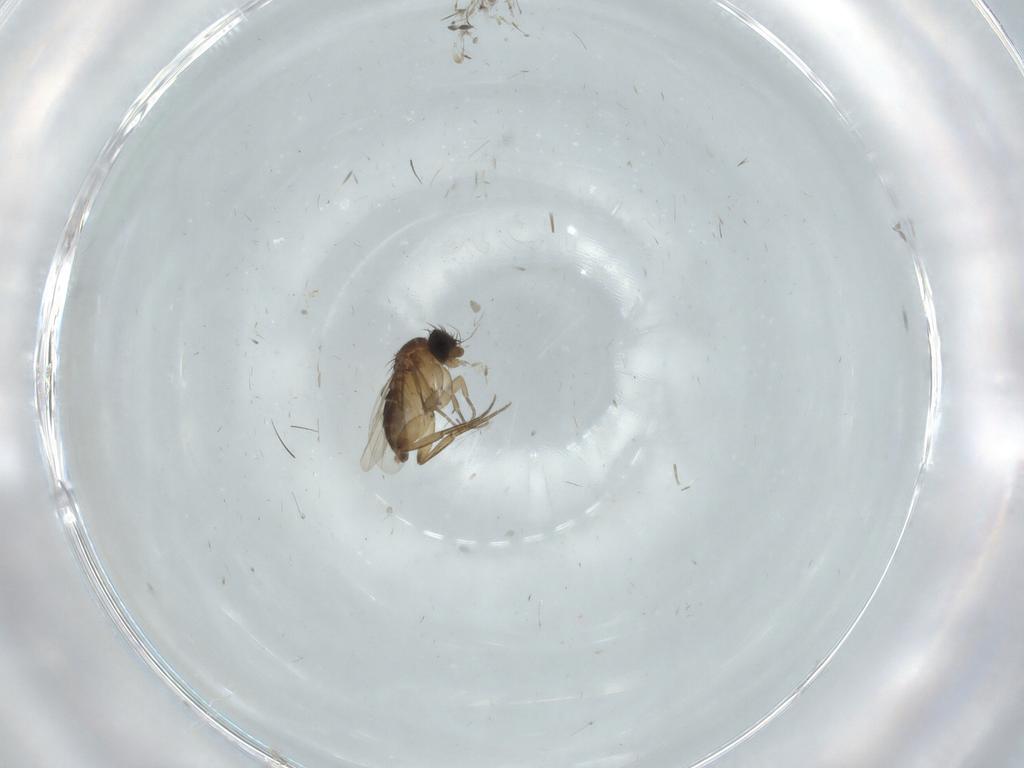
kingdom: Animalia
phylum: Arthropoda
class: Insecta
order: Diptera
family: Phoridae
